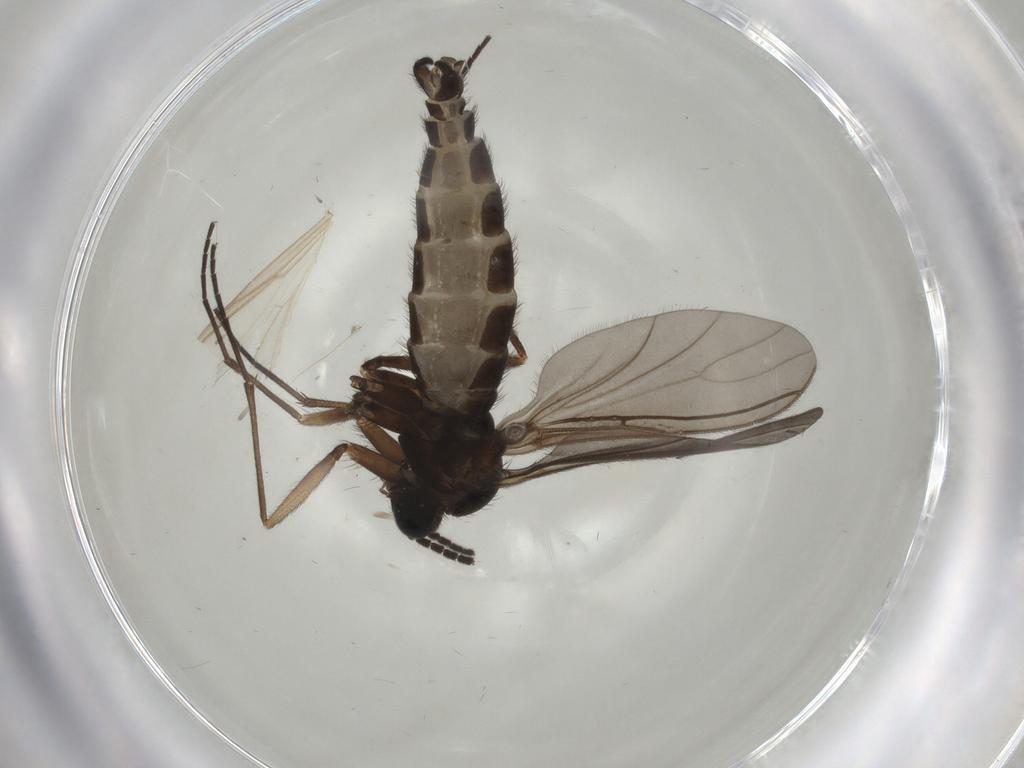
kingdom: Animalia
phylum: Arthropoda
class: Insecta
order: Diptera
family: Sciaridae
